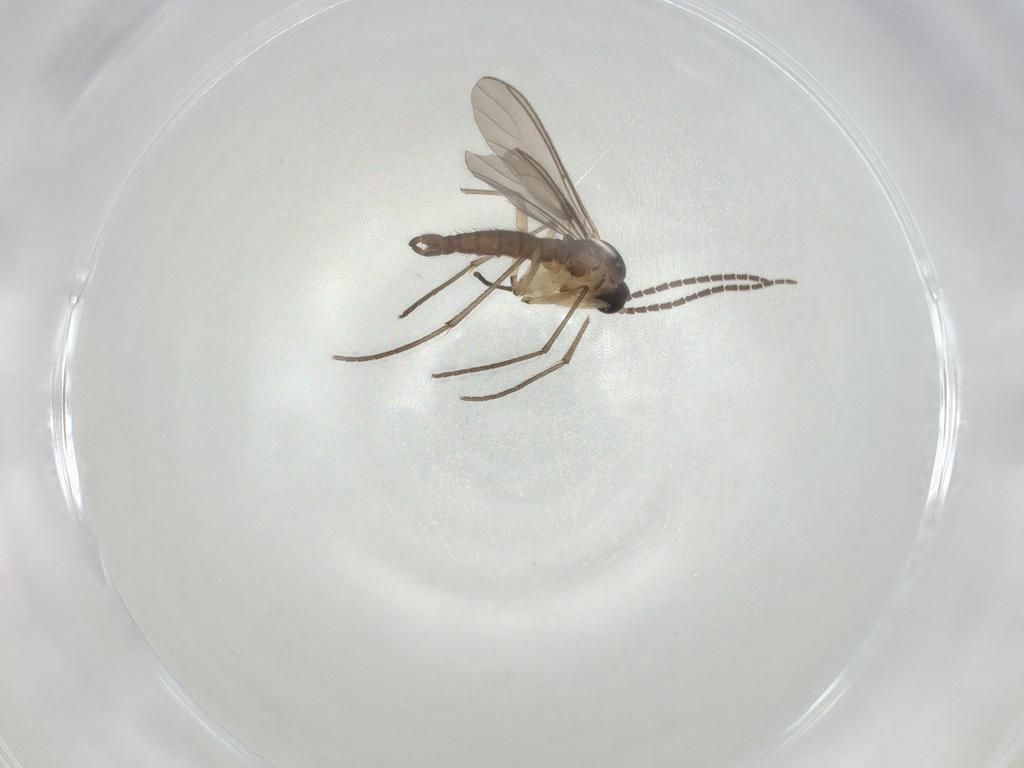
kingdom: Animalia
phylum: Arthropoda
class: Insecta
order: Diptera
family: Sciaridae
